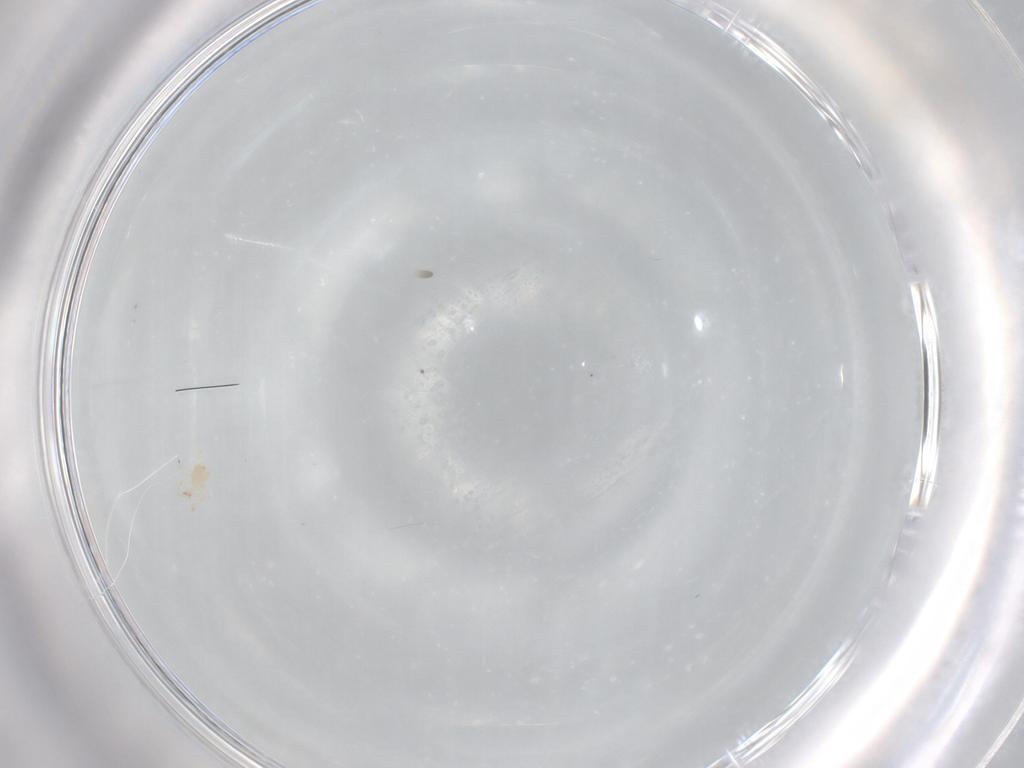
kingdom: Animalia
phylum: Arthropoda
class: Arachnida
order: Mesostigmata
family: Phytoseiidae
